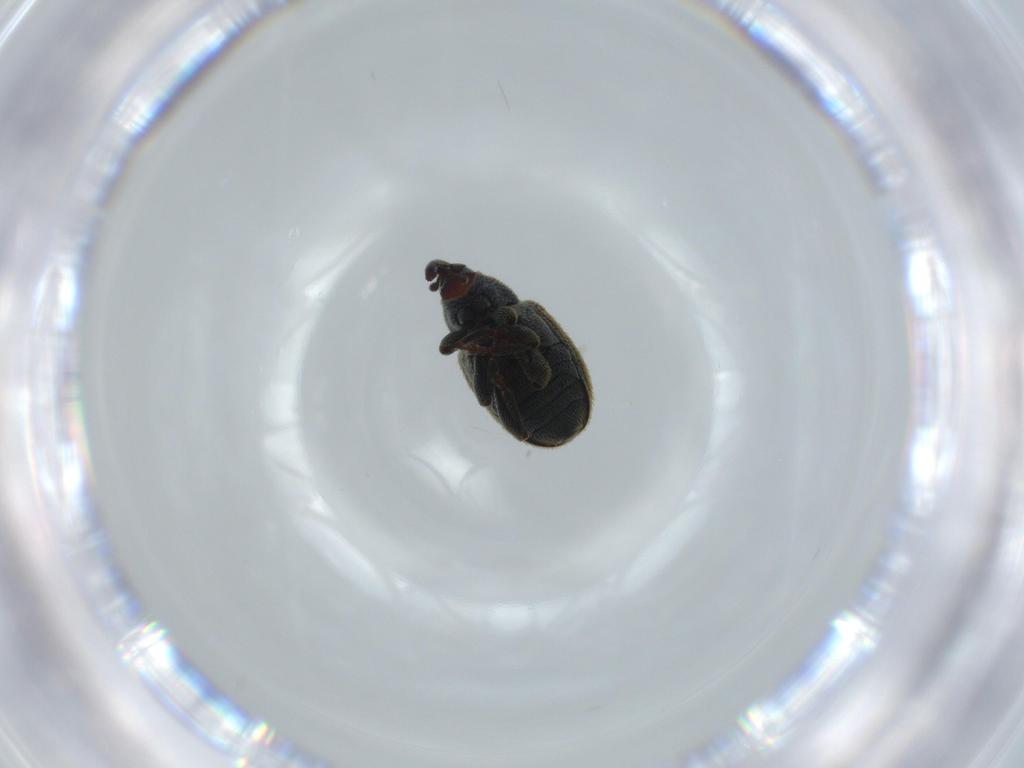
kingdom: Animalia
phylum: Arthropoda
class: Insecta
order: Coleoptera
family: Curculionidae
